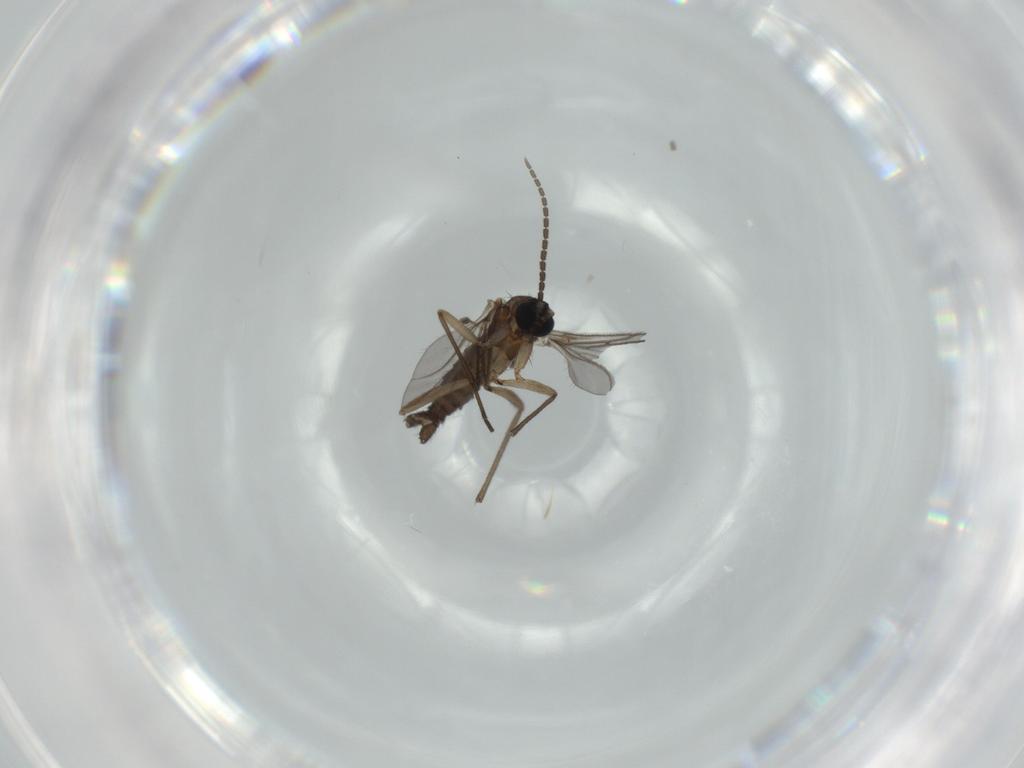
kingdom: Animalia
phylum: Arthropoda
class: Insecta
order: Diptera
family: Sciaridae
